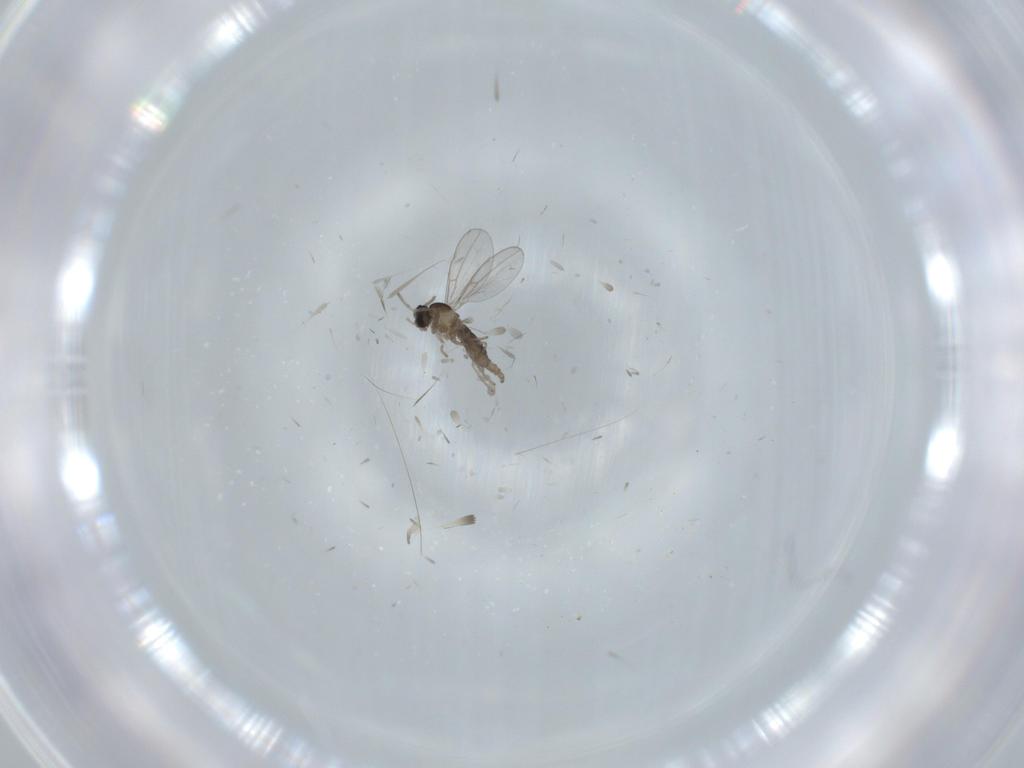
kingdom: Animalia
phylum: Arthropoda
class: Insecta
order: Diptera
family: Cecidomyiidae
